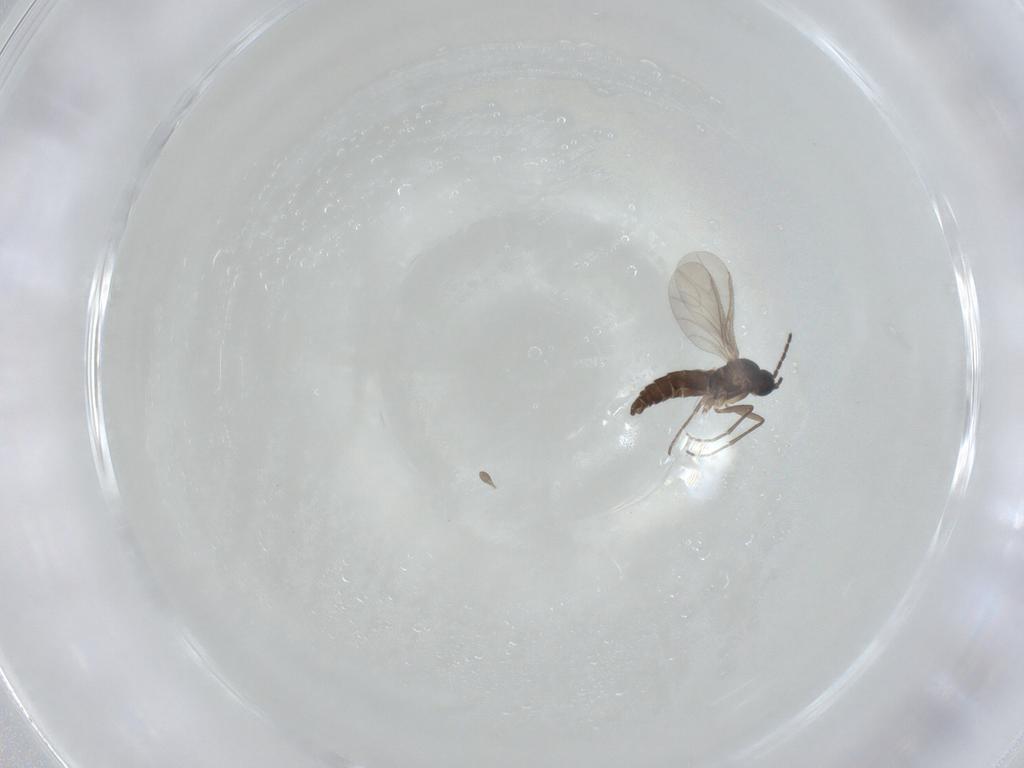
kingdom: Animalia
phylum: Arthropoda
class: Insecta
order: Diptera
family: Sciaridae
